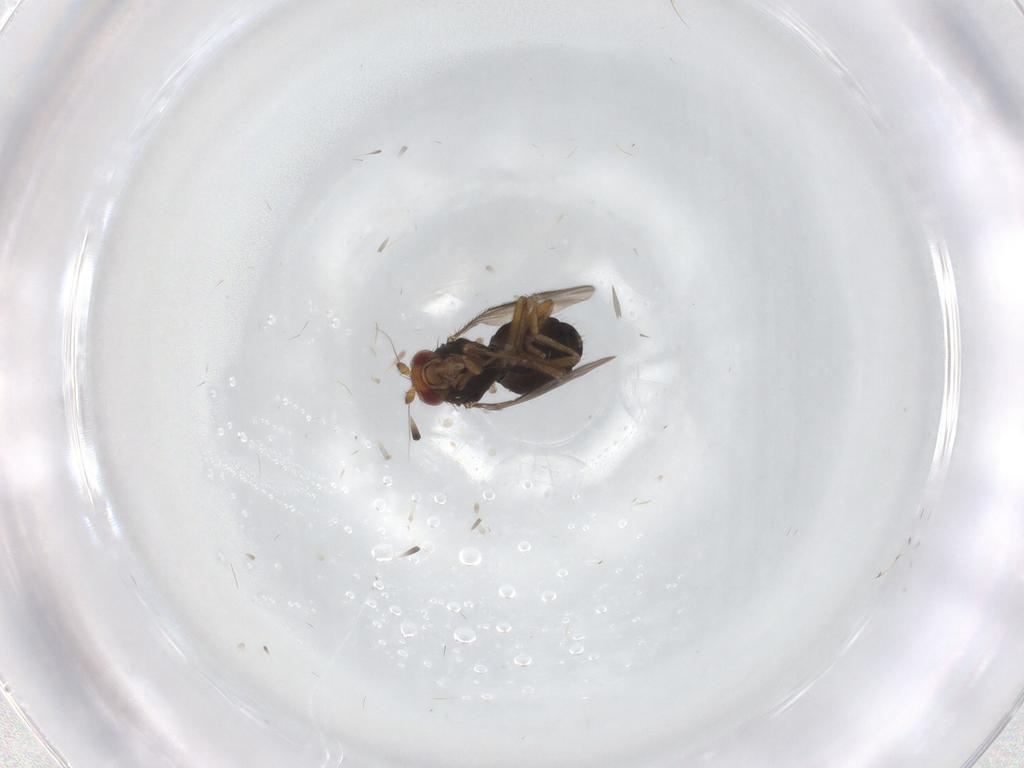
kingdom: Animalia
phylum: Arthropoda
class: Insecta
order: Diptera
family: Sphaeroceridae
